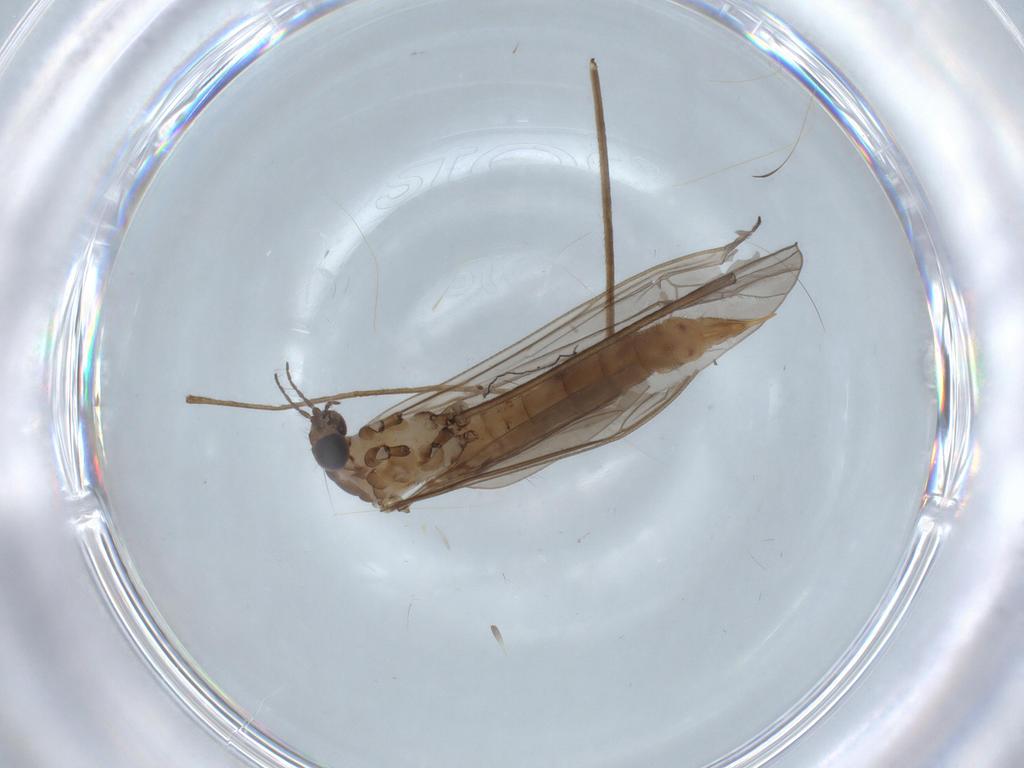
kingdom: Animalia
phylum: Arthropoda
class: Insecta
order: Diptera
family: Limoniidae
